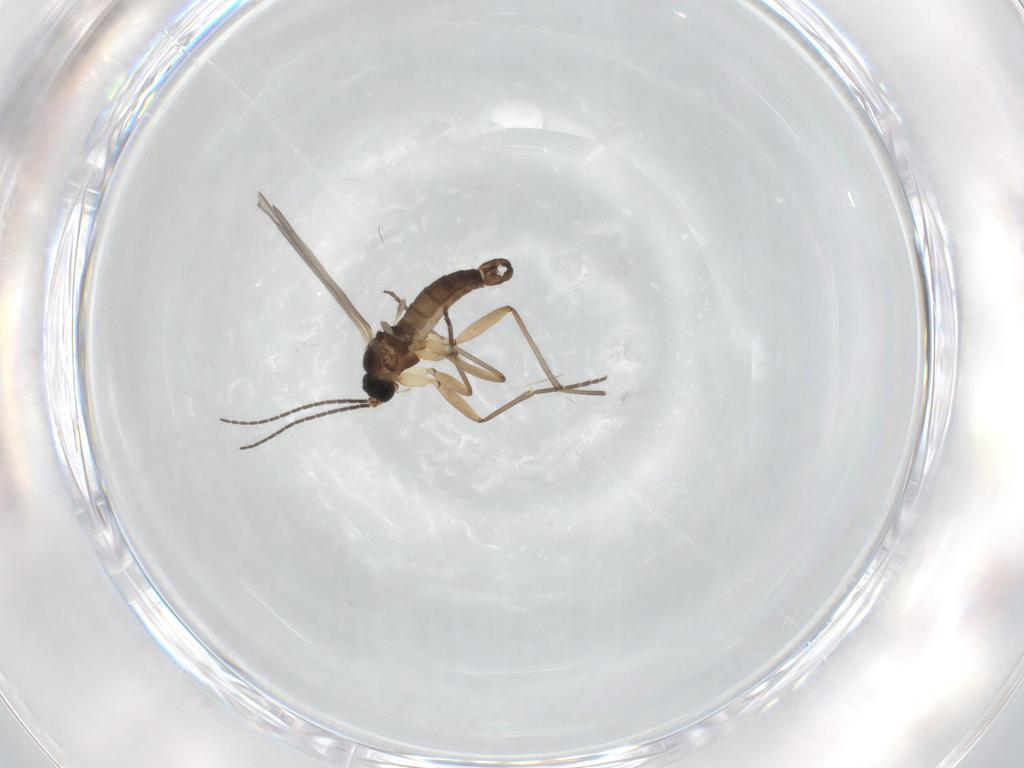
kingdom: Animalia
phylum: Arthropoda
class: Insecta
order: Diptera
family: Sciaridae
